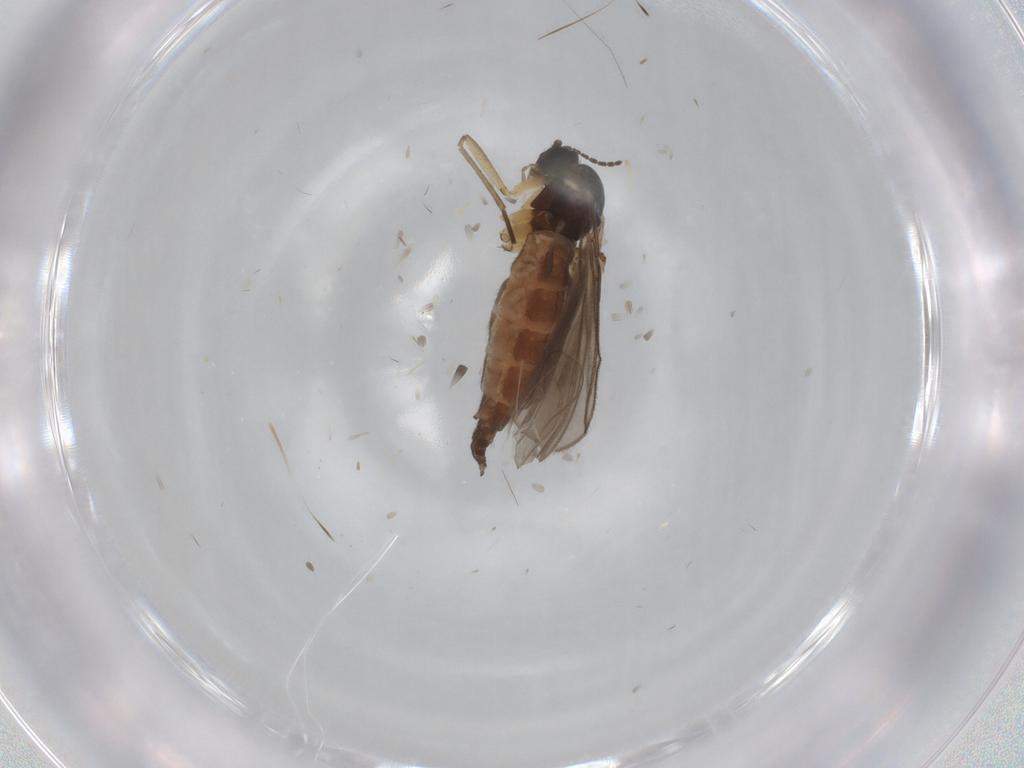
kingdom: Animalia
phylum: Arthropoda
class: Insecta
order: Diptera
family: Sciaridae
